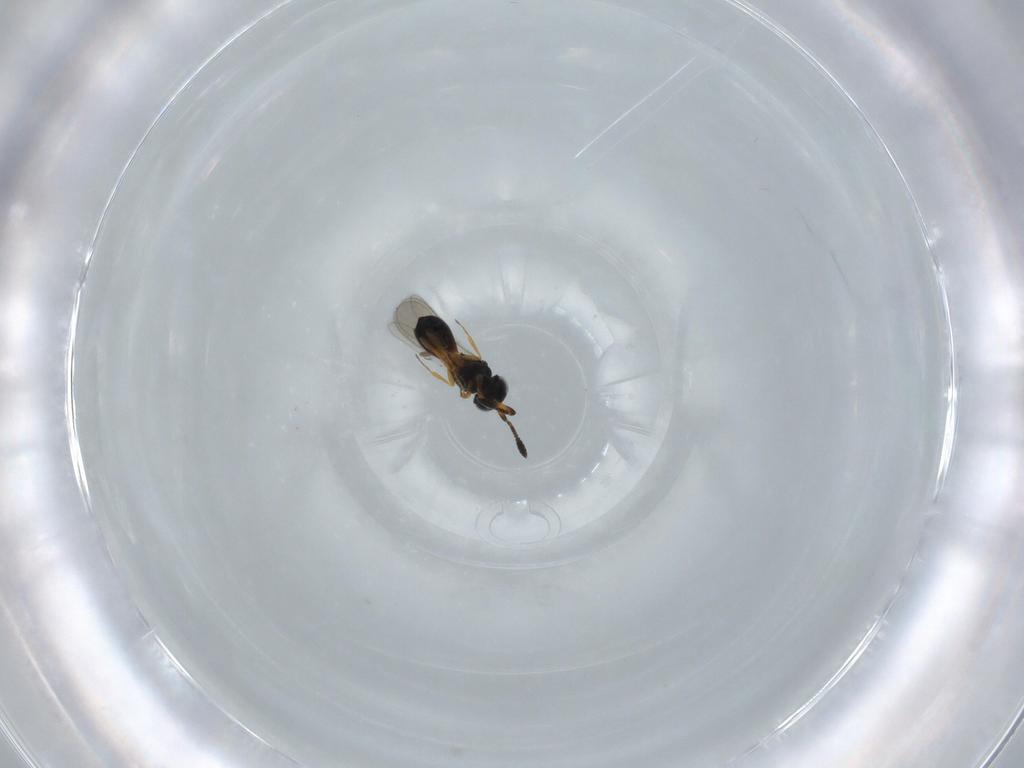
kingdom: Animalia
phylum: Arthropoda
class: Insecta
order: Hymenoptera
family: Scelionidae
